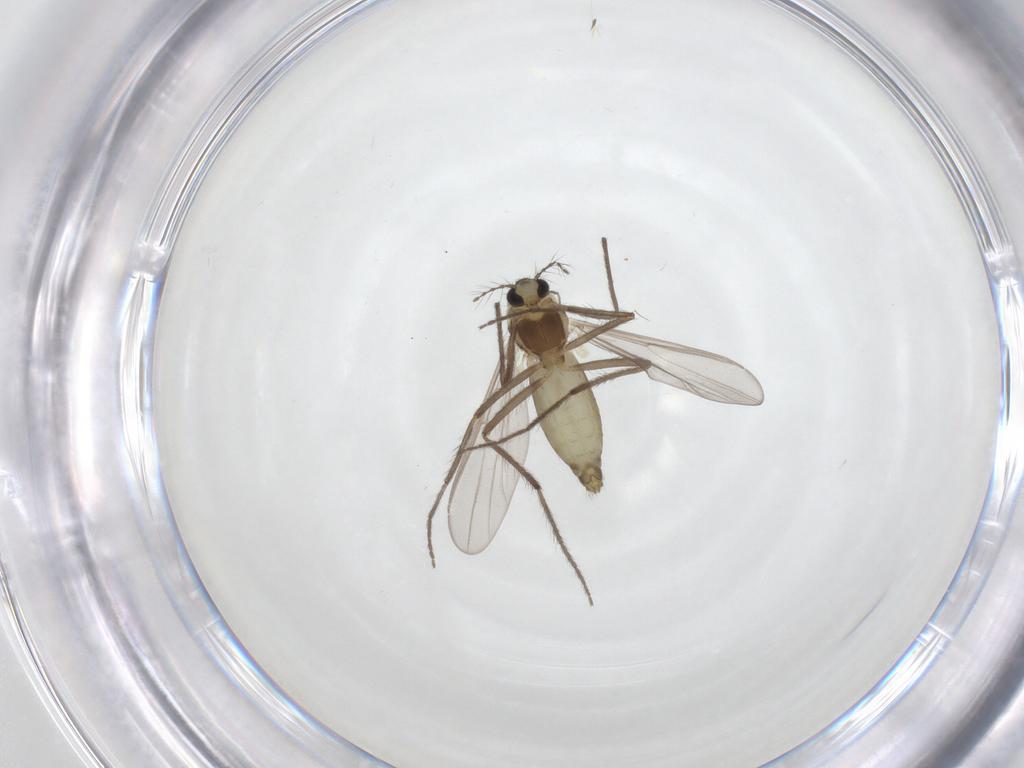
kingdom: Animalia
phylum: Arthropoda
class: Insecta
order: Diptera
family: Chironomidae
